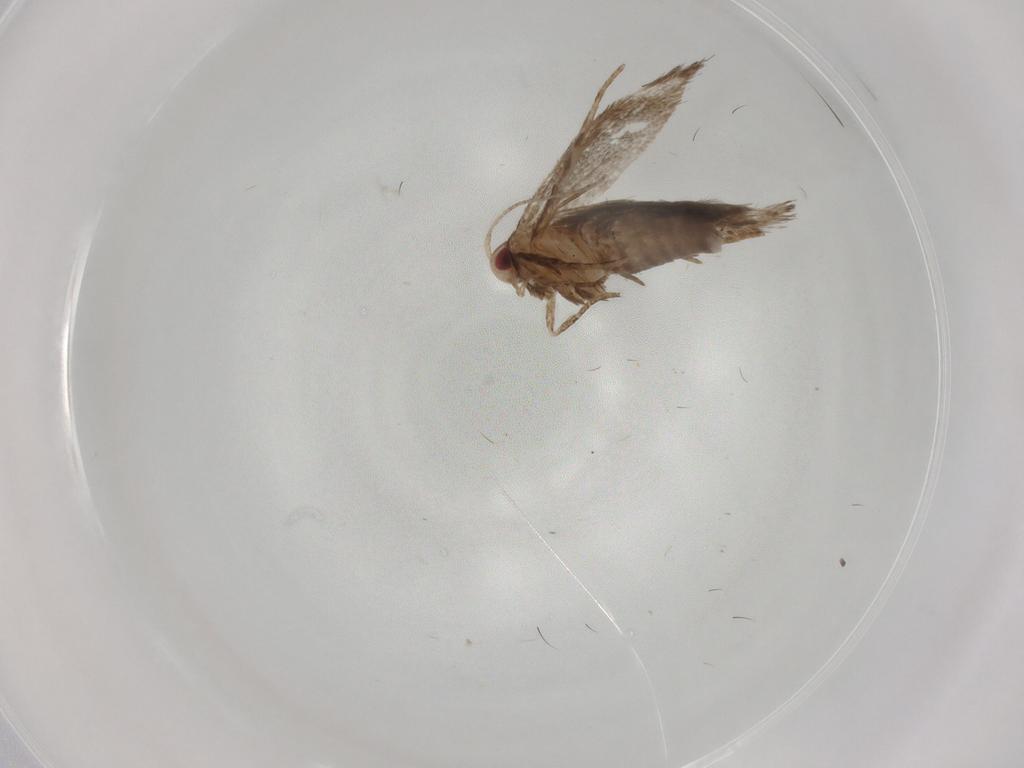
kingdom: Animalia
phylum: Arthropoda
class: Insecta
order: Lepidoptera
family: Gelechiidae
